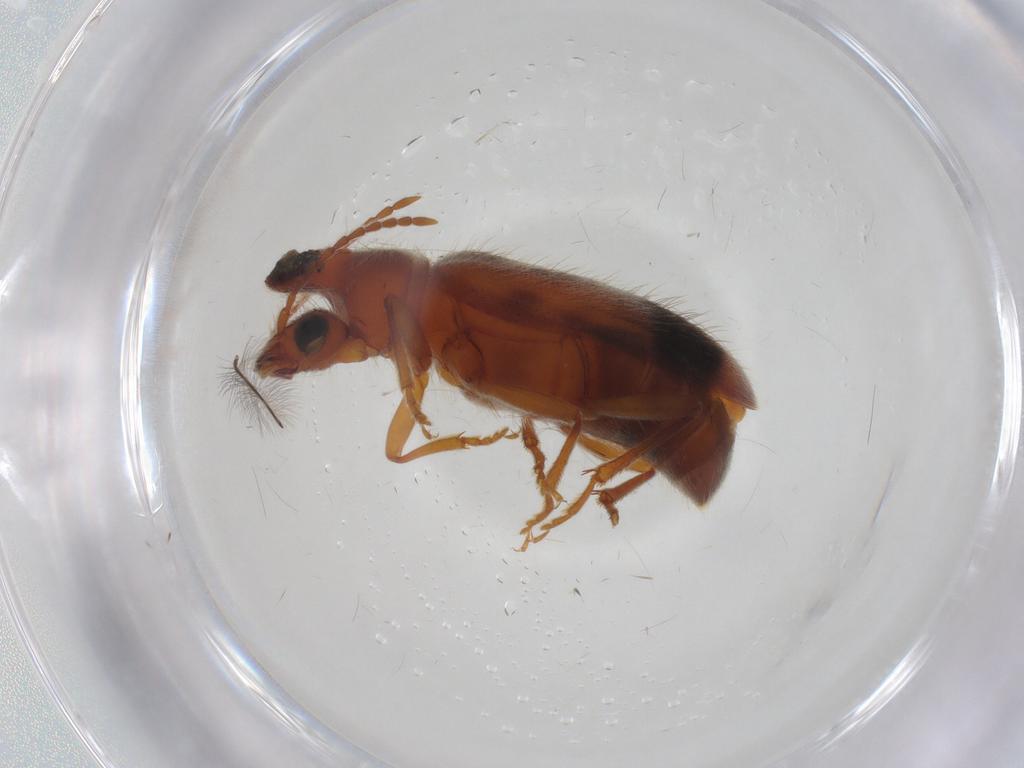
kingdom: Animalia
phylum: Arthropoda
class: Insecta
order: Coleoptera
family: Anthicidae
